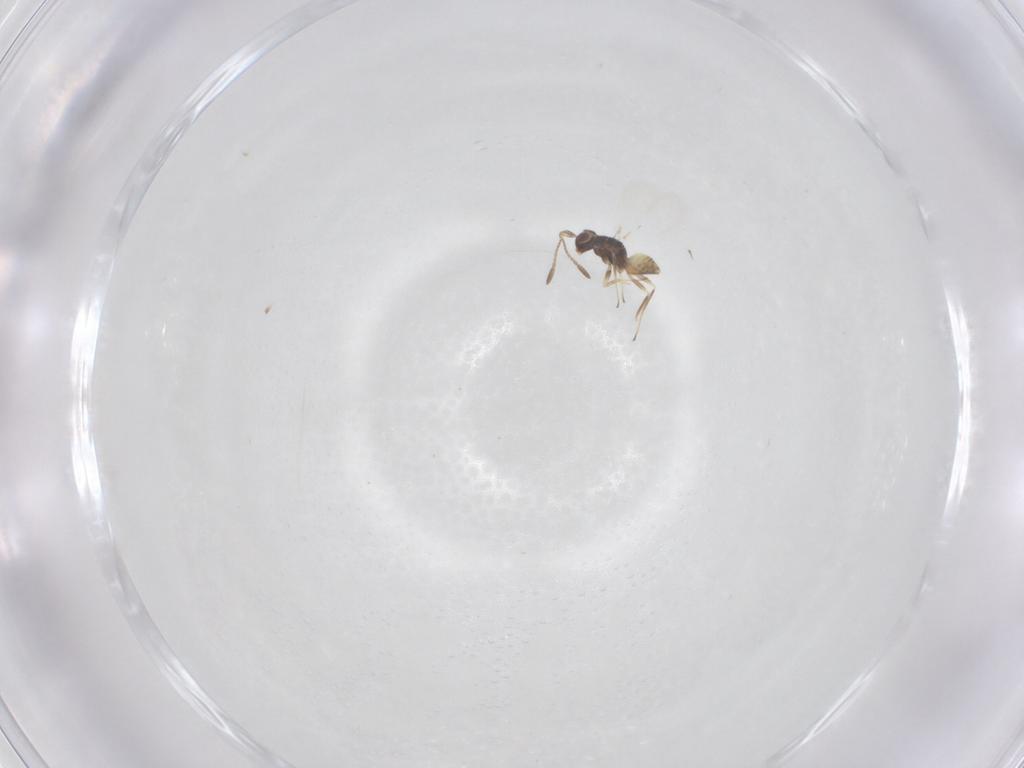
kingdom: Animalia
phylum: Arthropoda
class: Insecta
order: Hymenoptera
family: Mymaridae
